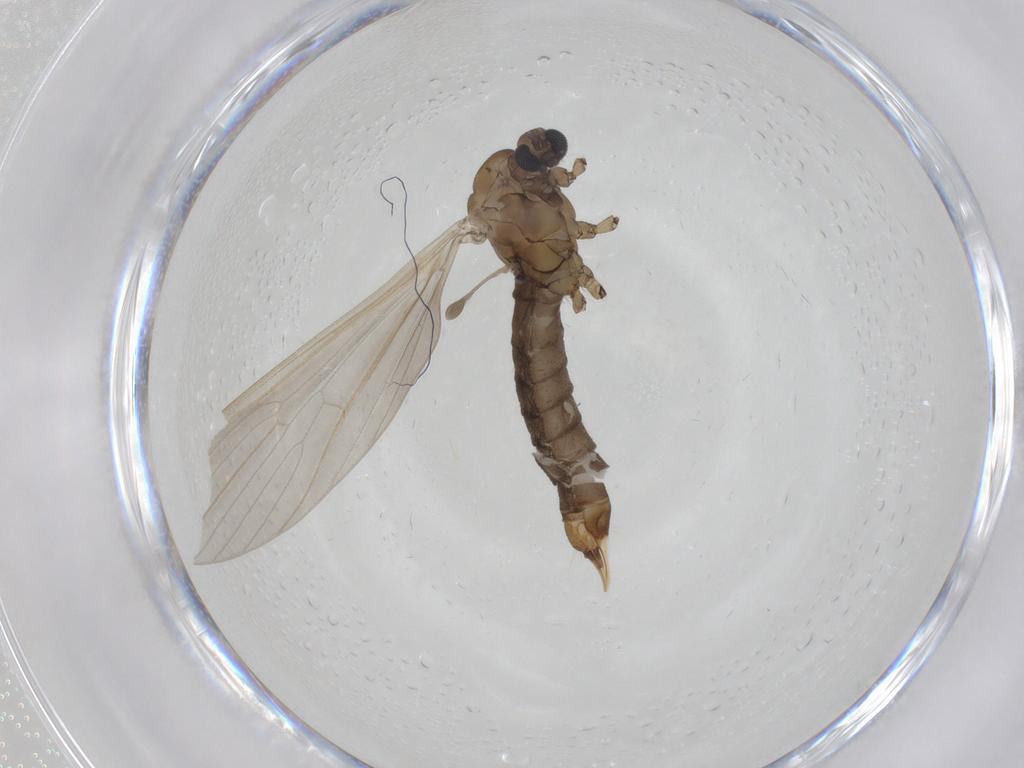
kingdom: Animalia
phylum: Arthropoda
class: Insecta
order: Diptera
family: Limoniidae
